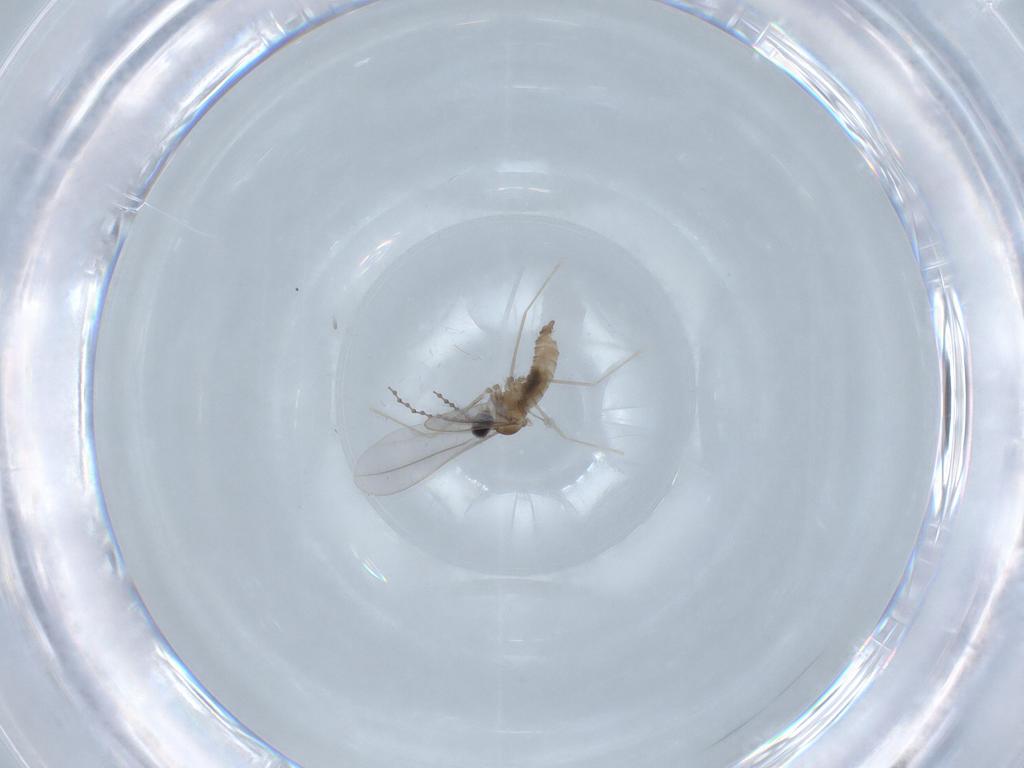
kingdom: Animalia
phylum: Arthropoda
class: Insecta
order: Diptera
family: Cecidomyiidae
